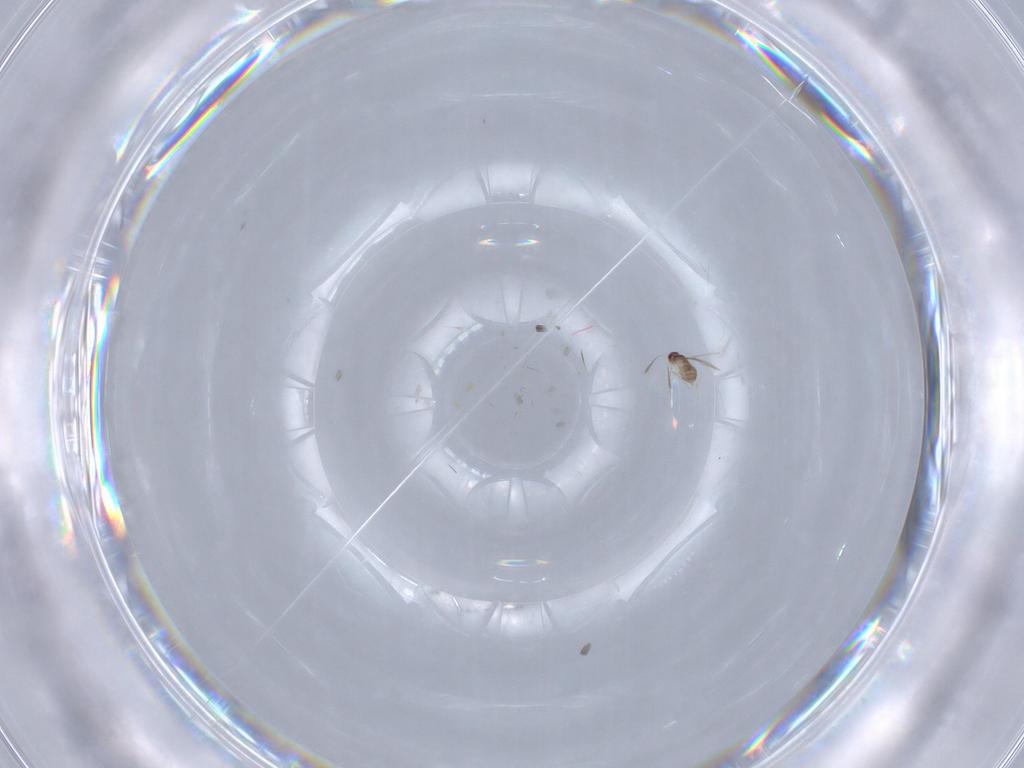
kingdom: Animalia
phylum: Arthropoda
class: Insecta
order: Hymenoptera
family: Mymaridae
